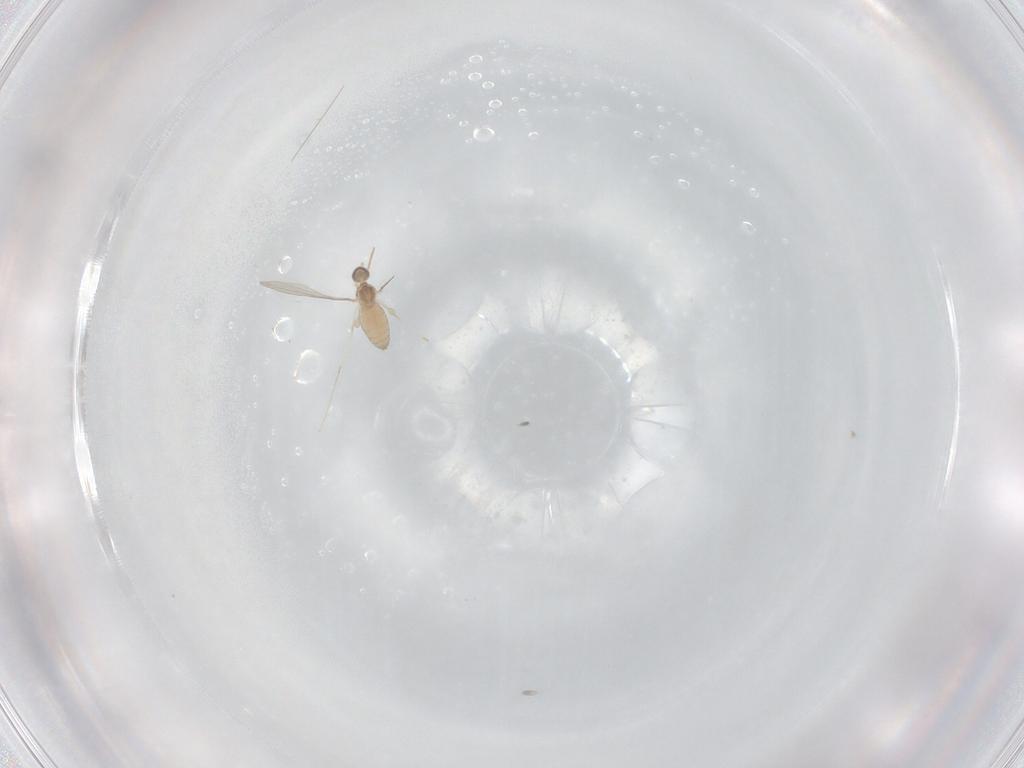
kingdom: Animalia
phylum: Arthropoda
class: Insecta
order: Diptera
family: Cecidomyiidae
